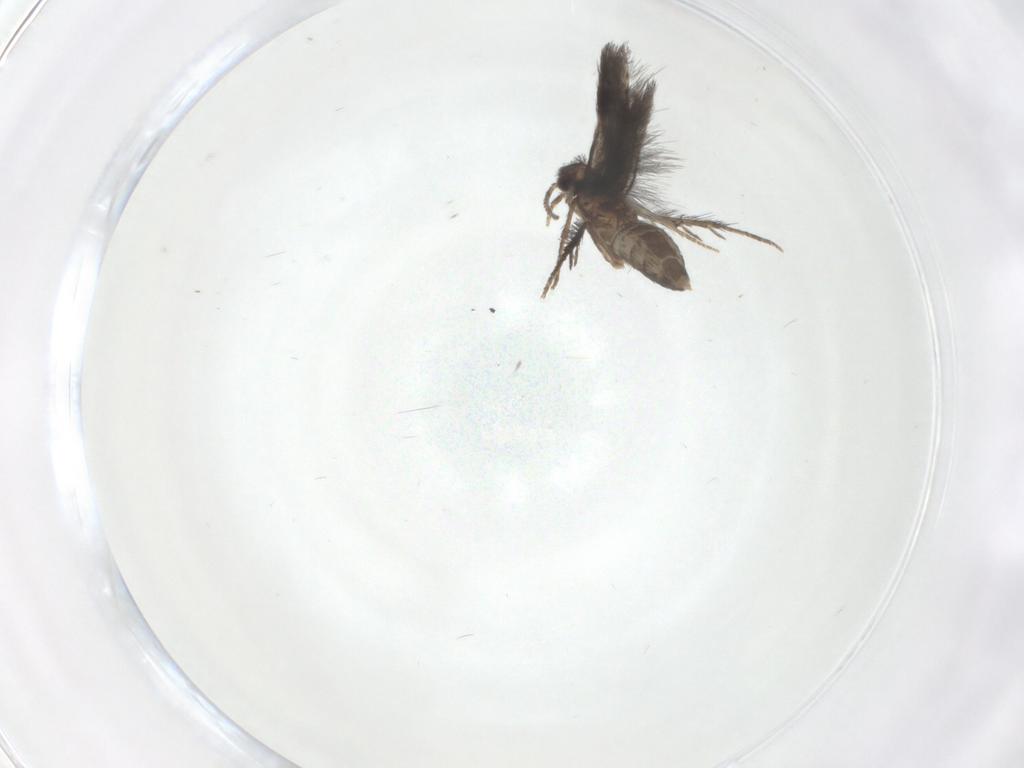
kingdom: Animalia
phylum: Arthropoda
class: Insecta
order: Trichoptera
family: Hydroptilidae
